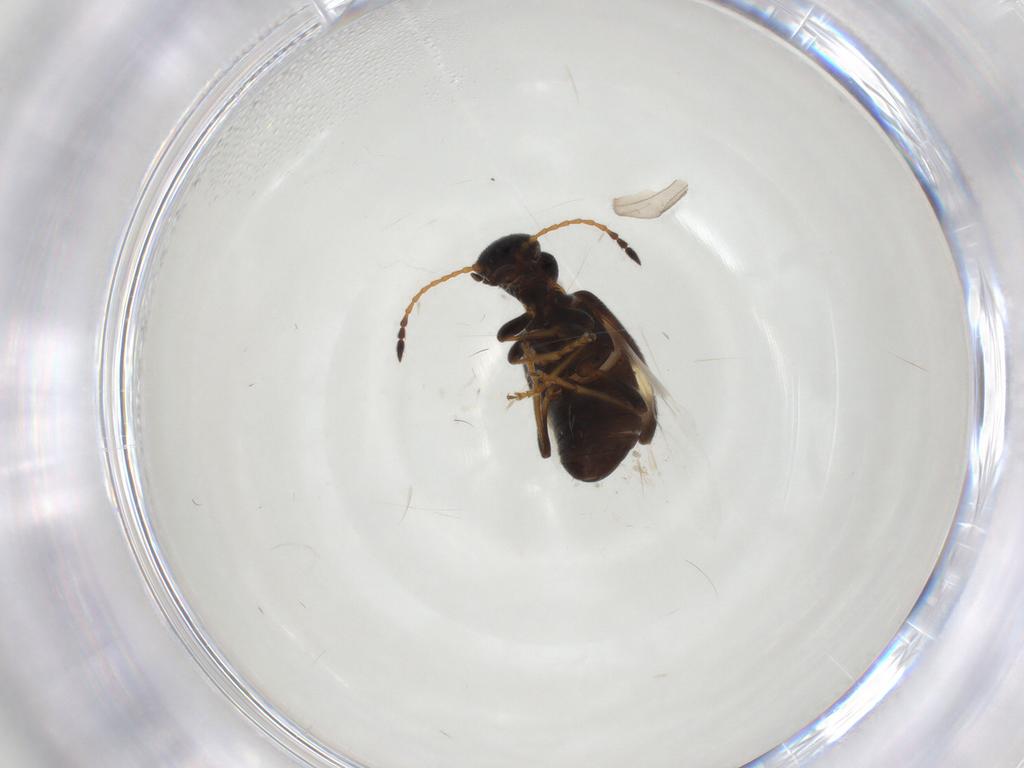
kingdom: Animalia
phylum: Arthropoda
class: Insecta
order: Coleoptera
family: Anthicidae
